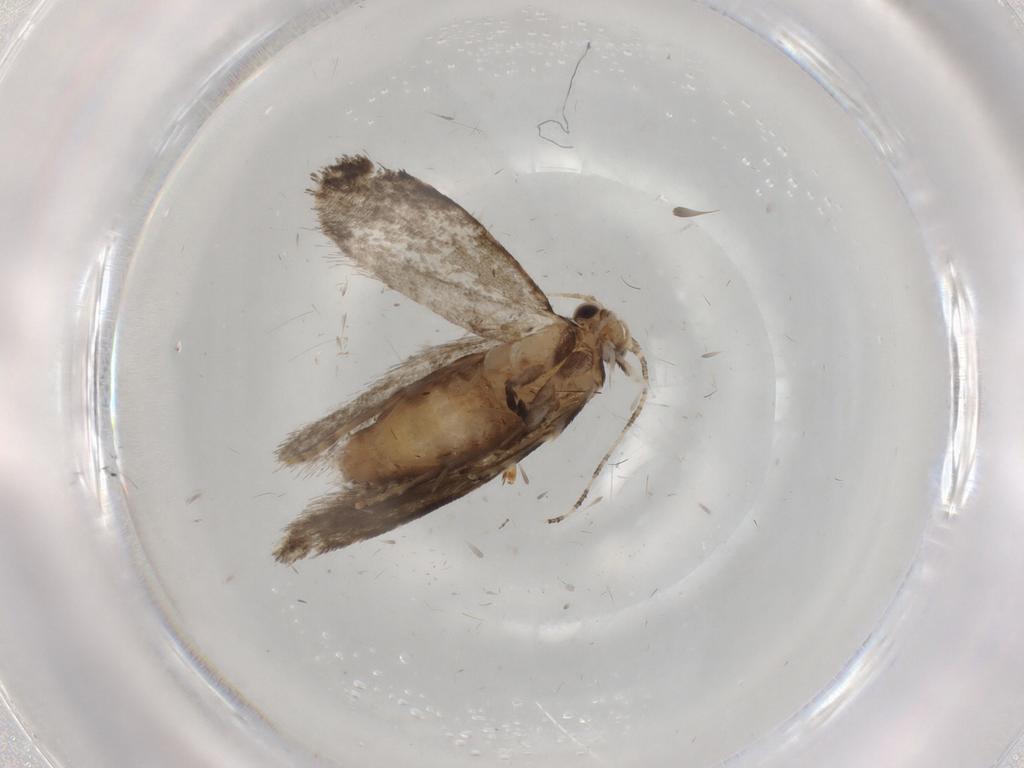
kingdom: Animalia
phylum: Arthropoda
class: Insecta
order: Lepidoptera
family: Tineidae
